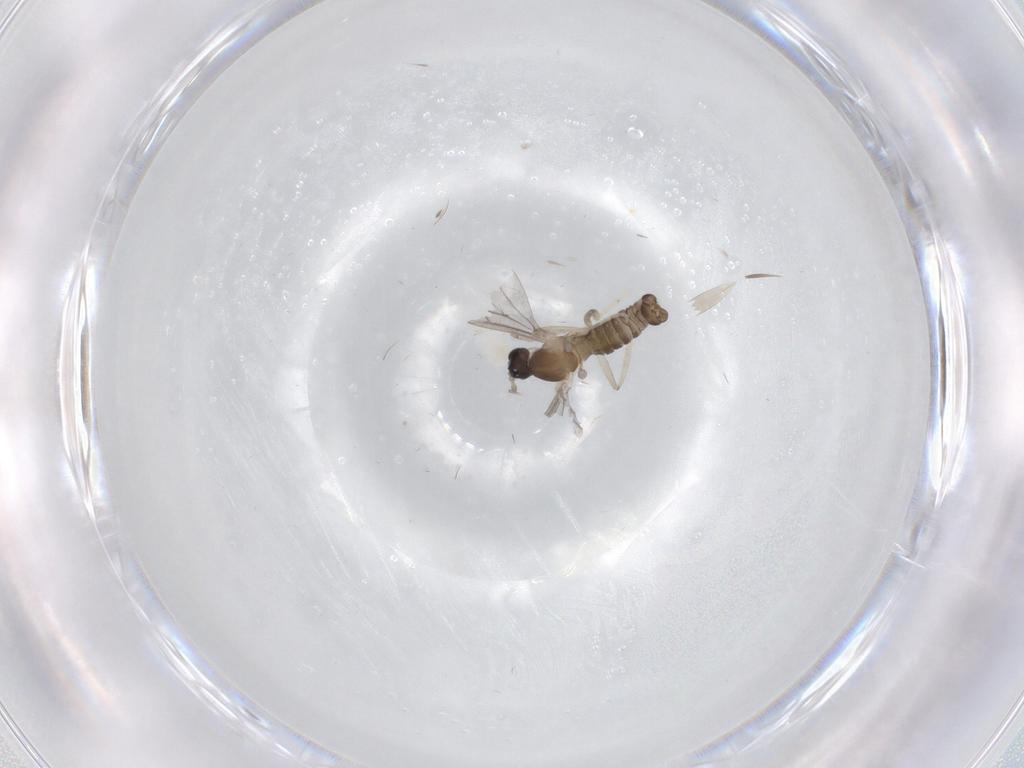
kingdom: Animalia
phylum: Arthropoda
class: Insecta
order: Diptera
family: Cecidomyiidae
